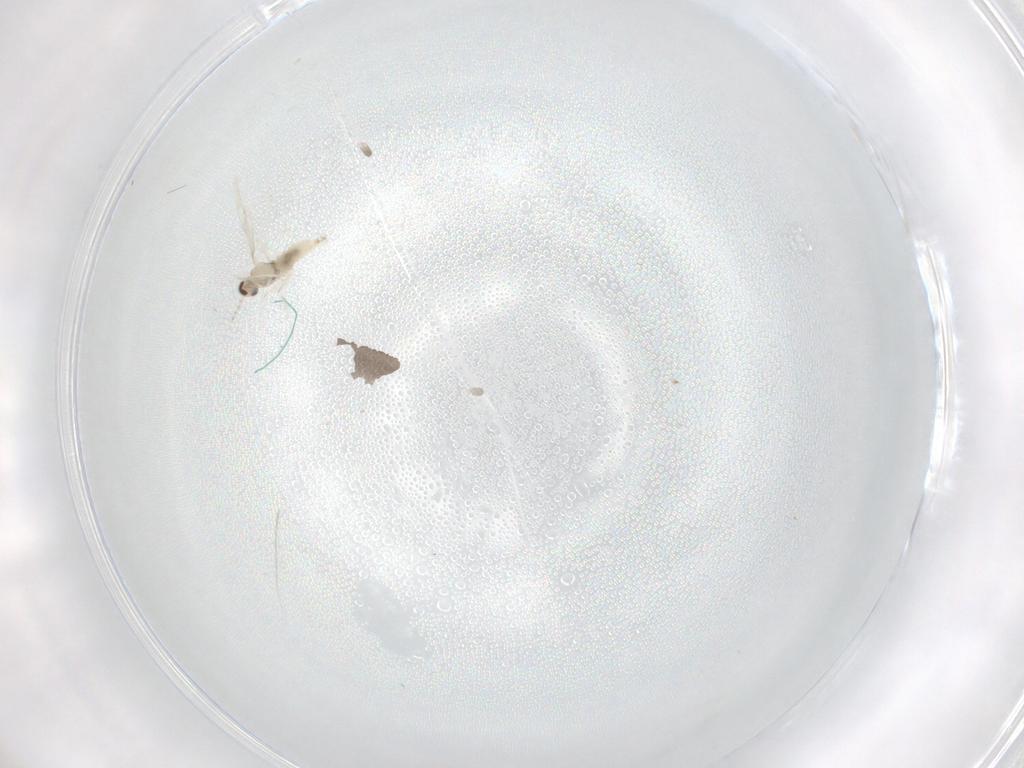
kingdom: Animalia
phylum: Arthropoda
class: Insecta
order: Diptera
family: Cecidomyiidae
